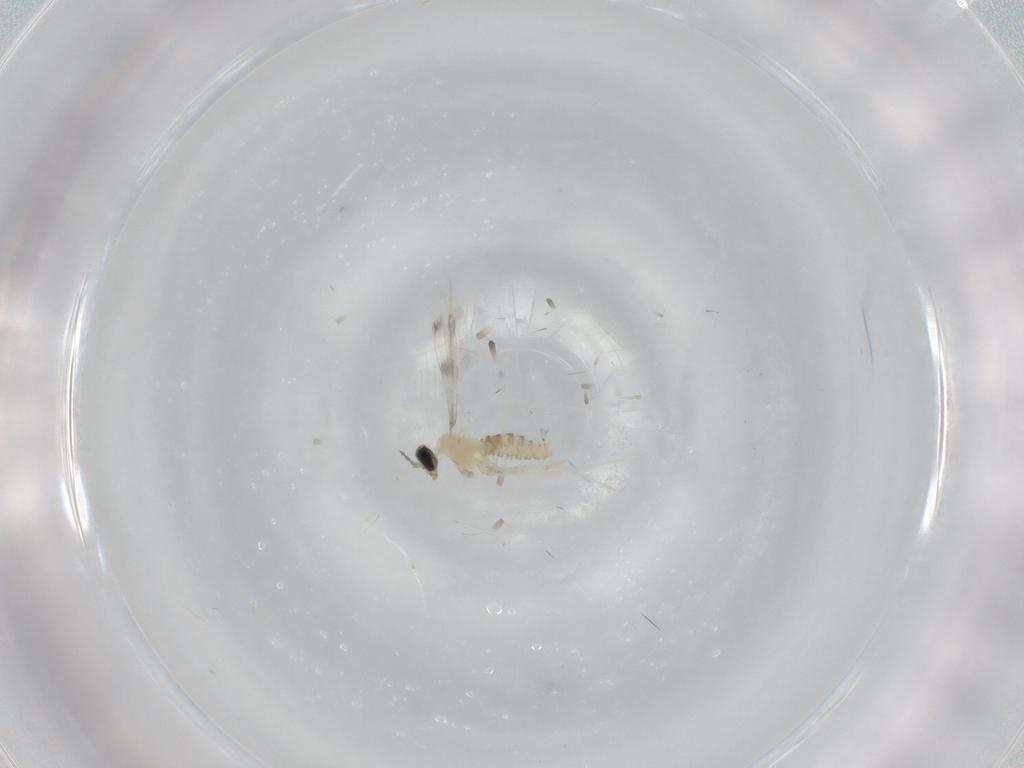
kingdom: Animalia
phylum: Arthropoda
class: Insecta
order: Diptera
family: Cecidomyiidae
